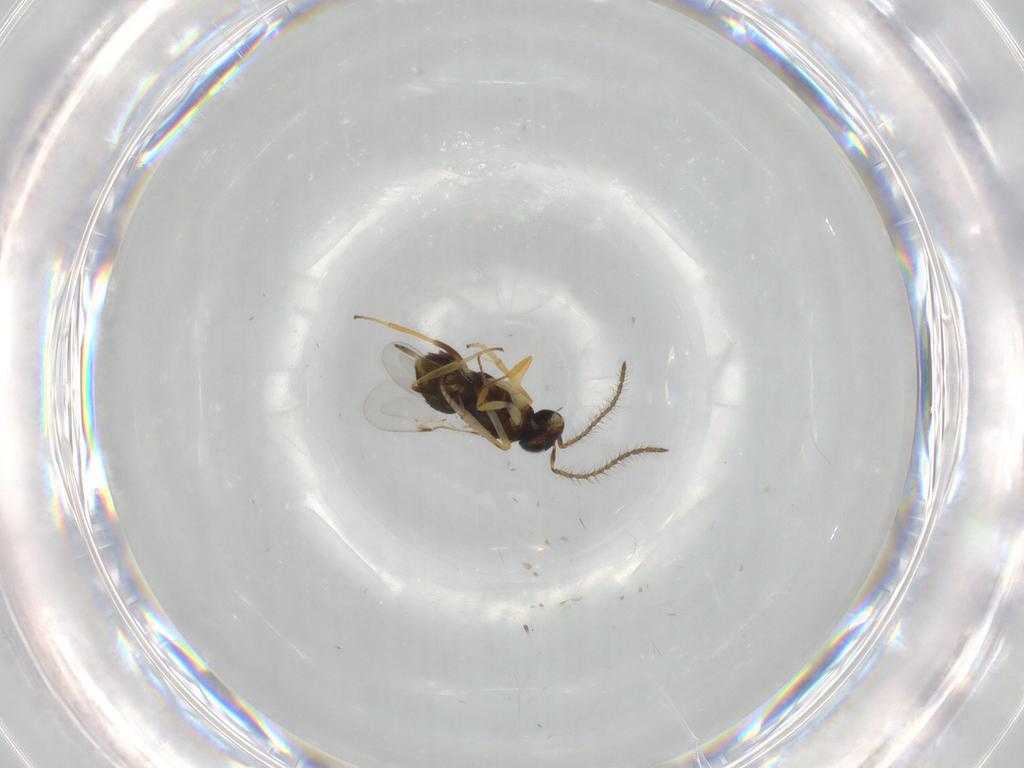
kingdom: Animalia
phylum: Arthropoda
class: Insecta
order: Hymenoptera
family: Encyrtidae
